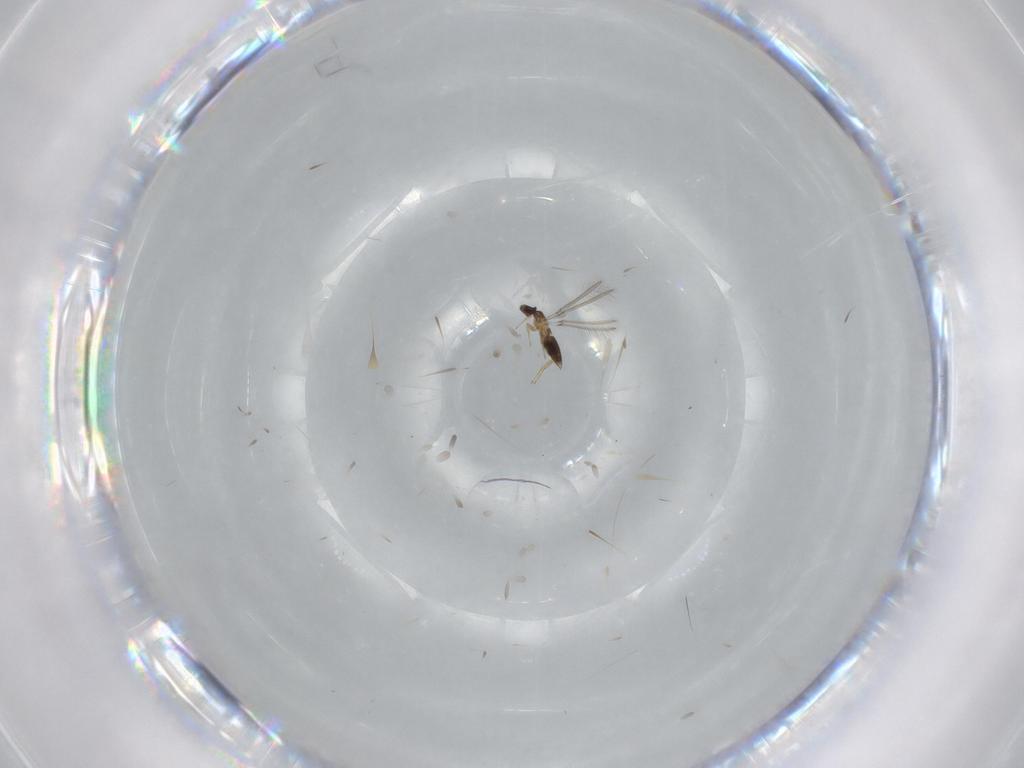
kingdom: Animalia
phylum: Arthropoda
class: Insecta
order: Hymenoptera
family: Mymaridae
